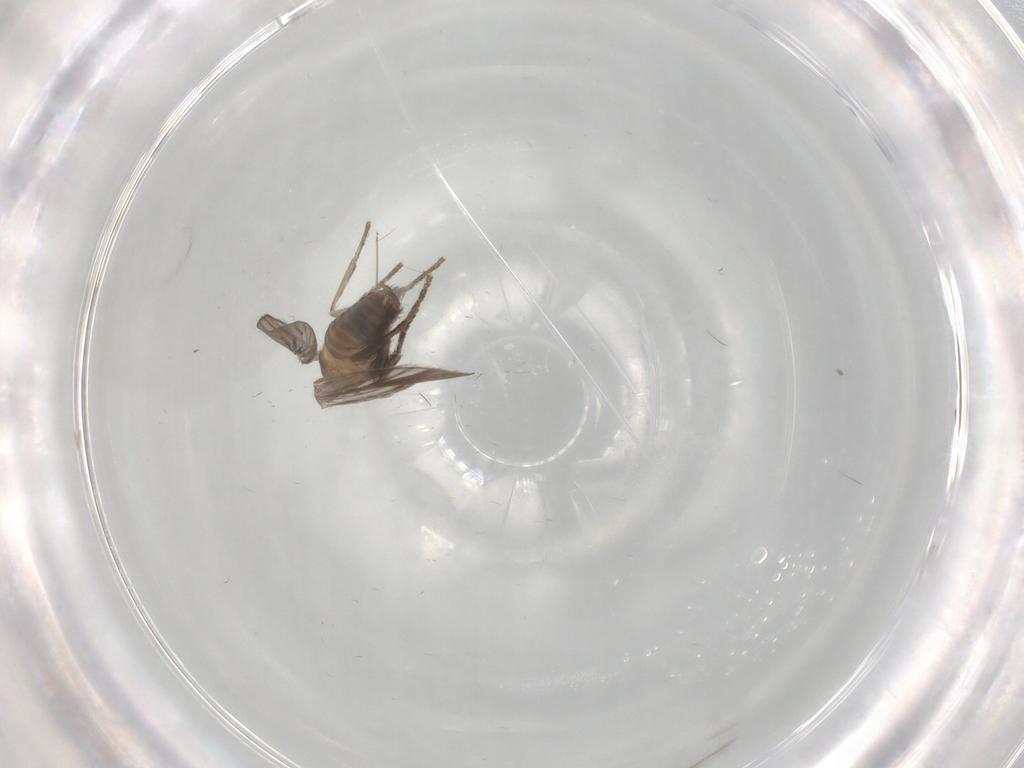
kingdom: Animalia
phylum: Arthropoda
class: Insecta
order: Diptera
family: Psychodidae
